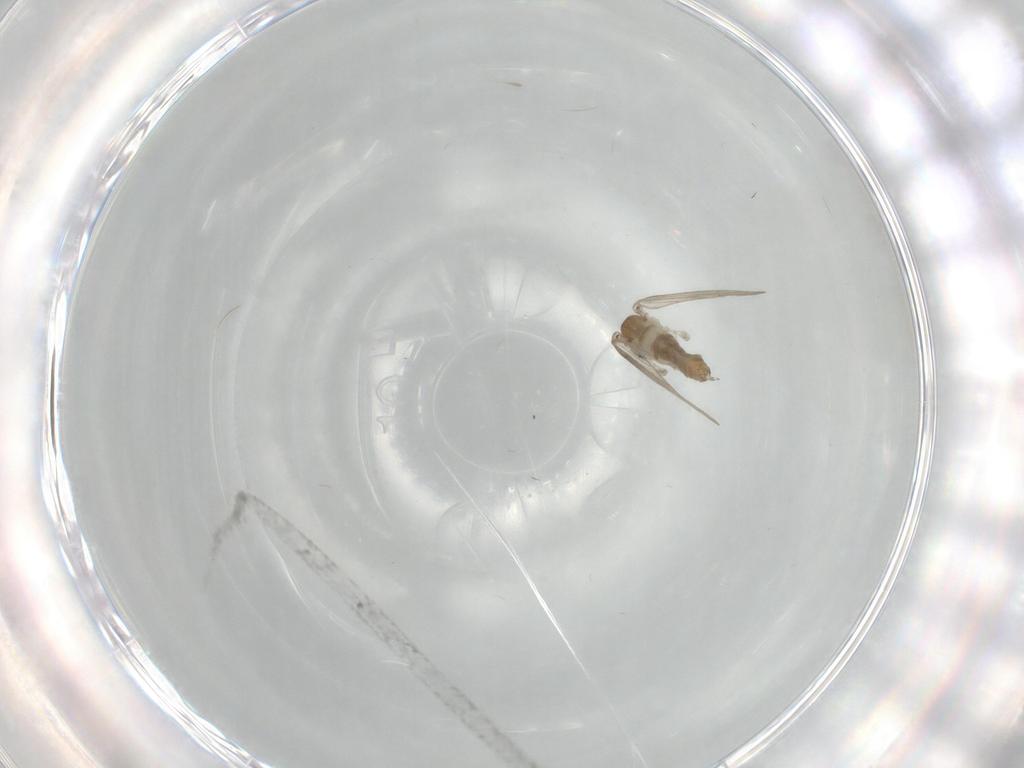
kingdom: Animalia
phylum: Arthropoda
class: Insecta
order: Diptera
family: Psychodidae
